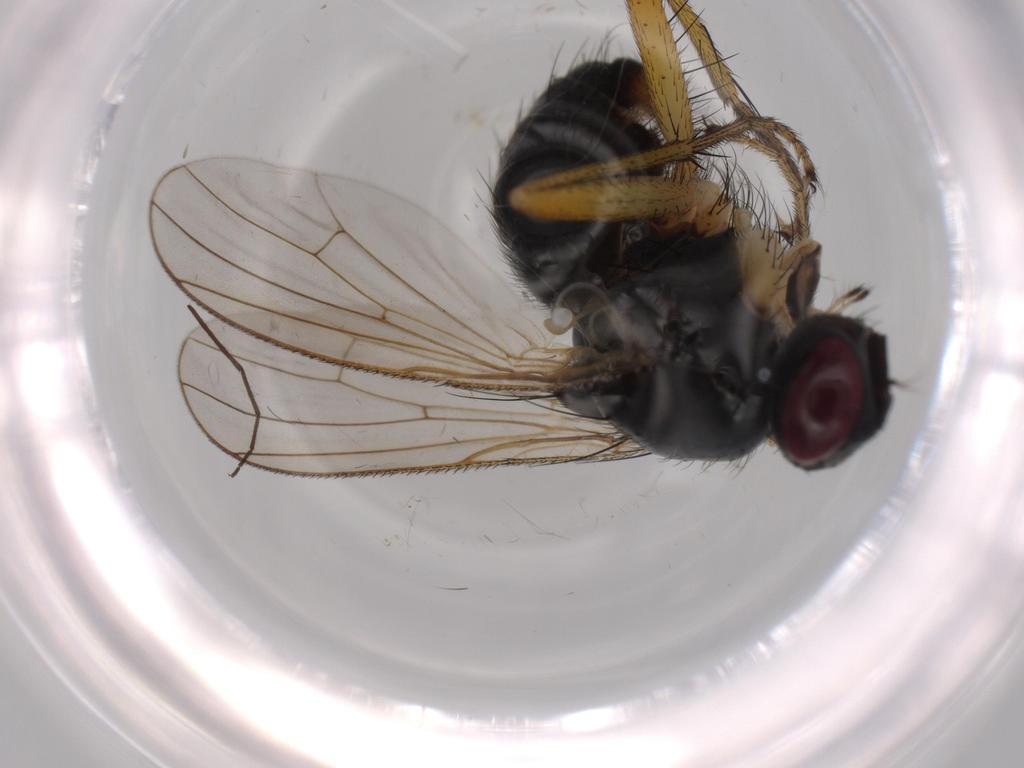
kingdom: Animalia
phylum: Arthropoda
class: Insecta
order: Diptera
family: Muscidae
